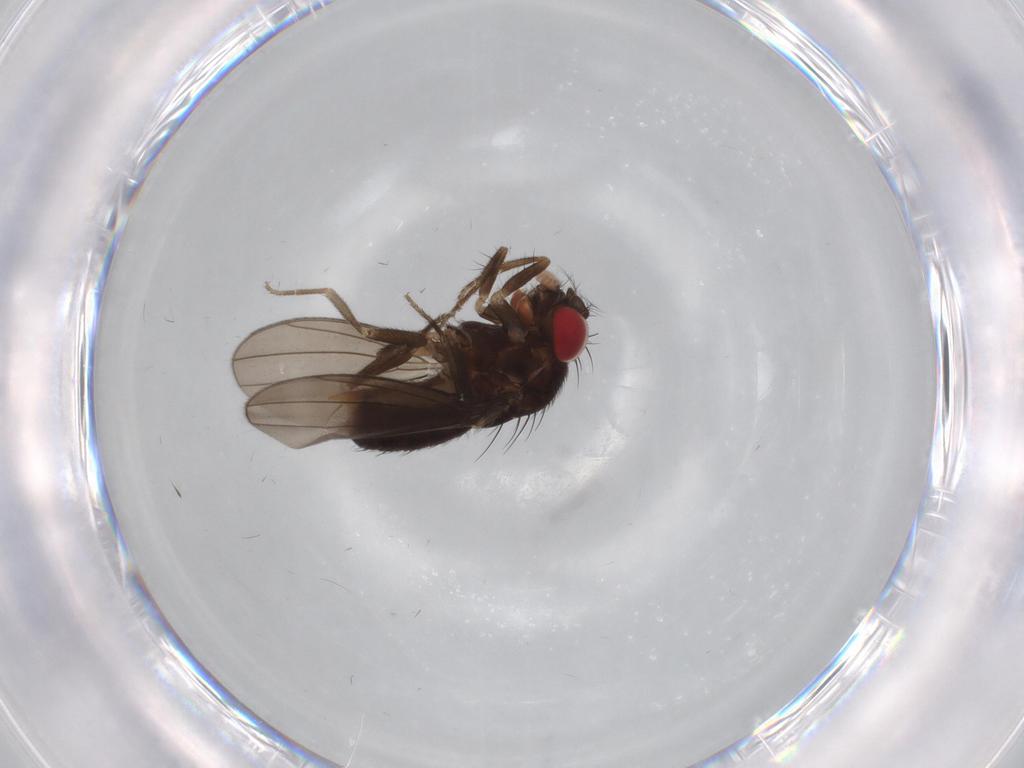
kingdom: Animalia
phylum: Arthropoda
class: Insecta
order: Diptera
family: Drosophilidae
